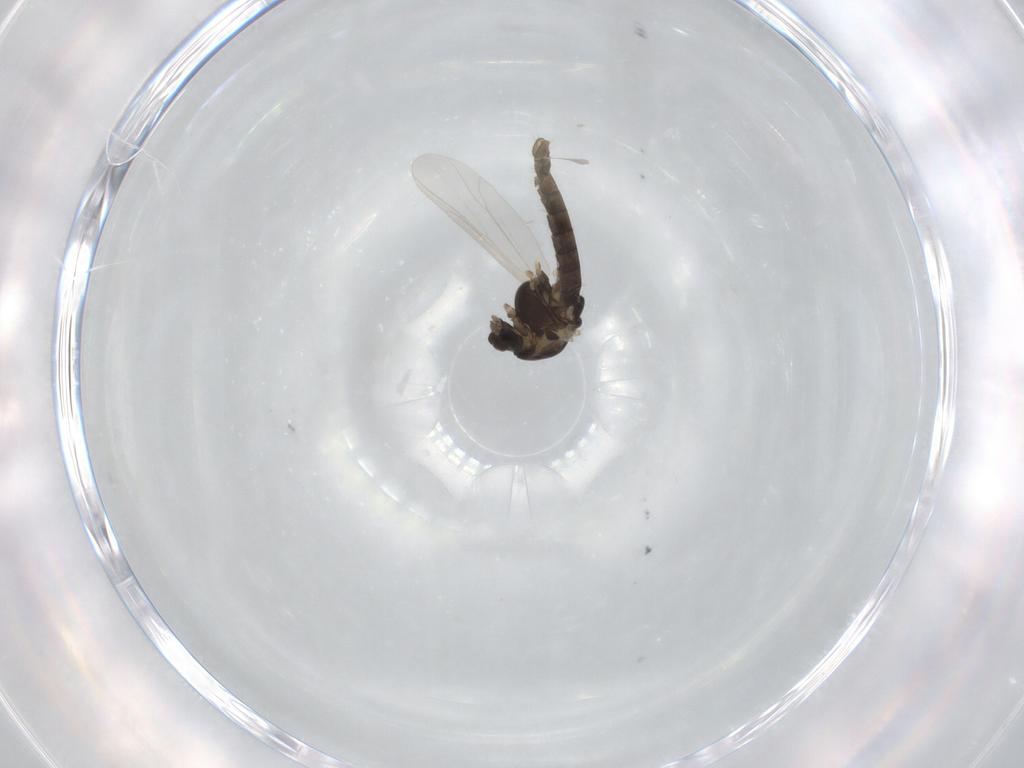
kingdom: Animalia
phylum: Arthropoda
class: Insecta
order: Diptera
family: Chironomidae
